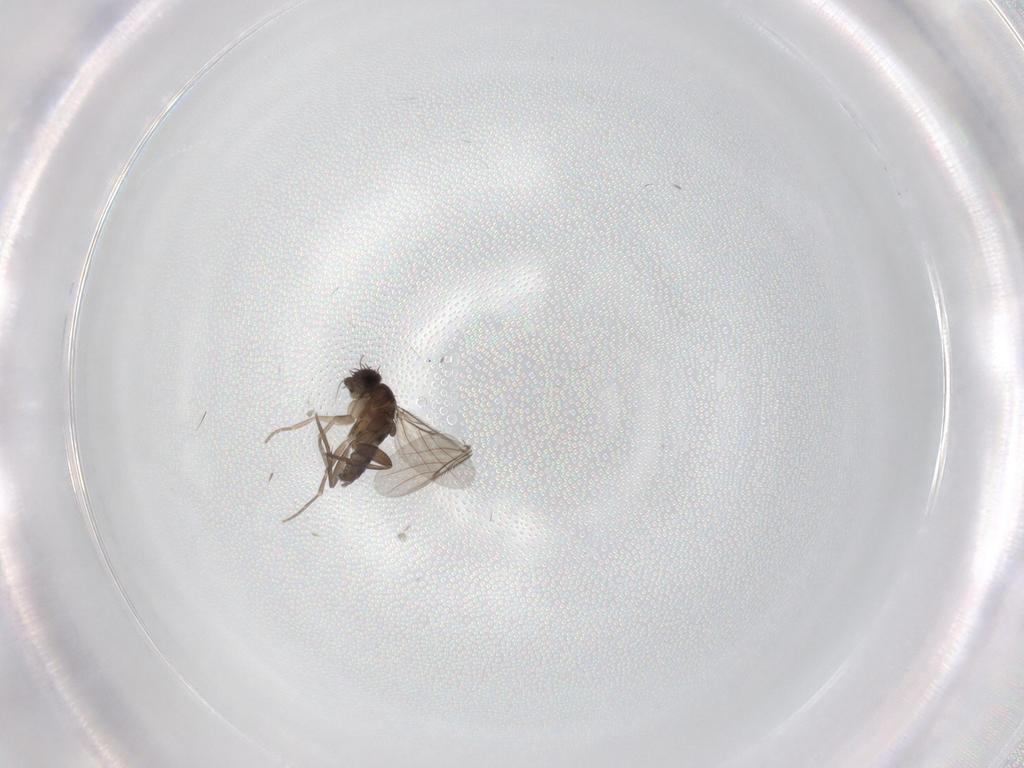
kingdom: Animalia
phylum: Arthropoda
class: Insecta
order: Diptera
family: Phoridae
